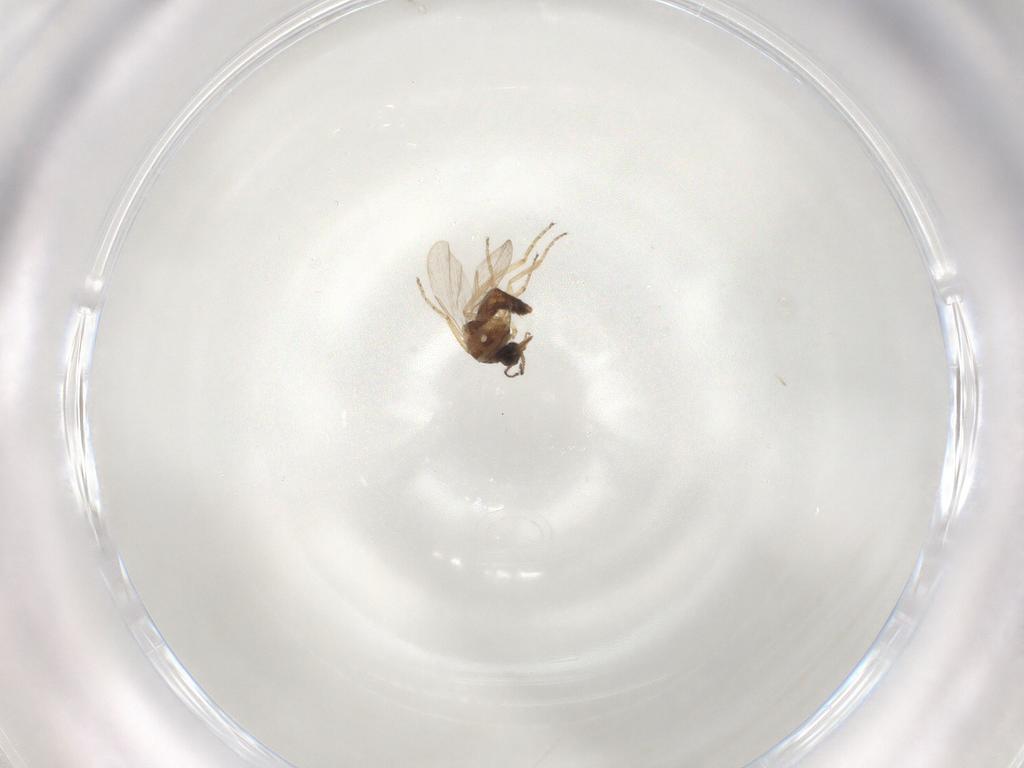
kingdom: Animalia
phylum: Arthropoda
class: Insecta
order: Diptera
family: Ceratopogonidae
